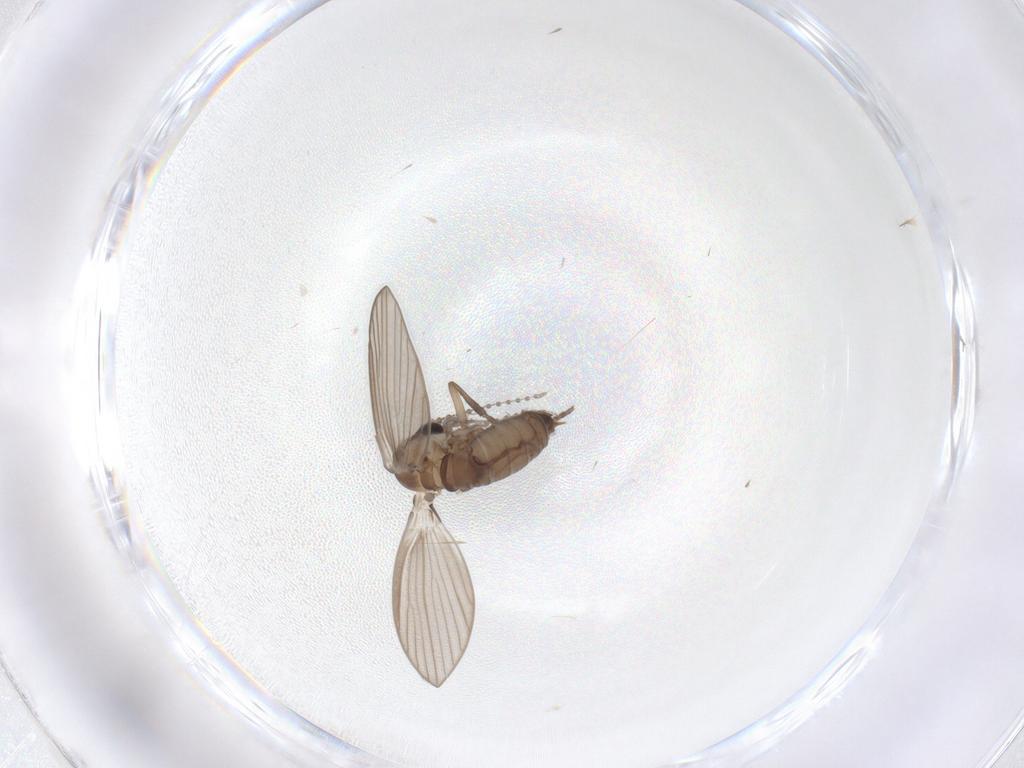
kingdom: Animalia
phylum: Arthropoda
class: Insecta
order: Diptera
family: Psychodidae
